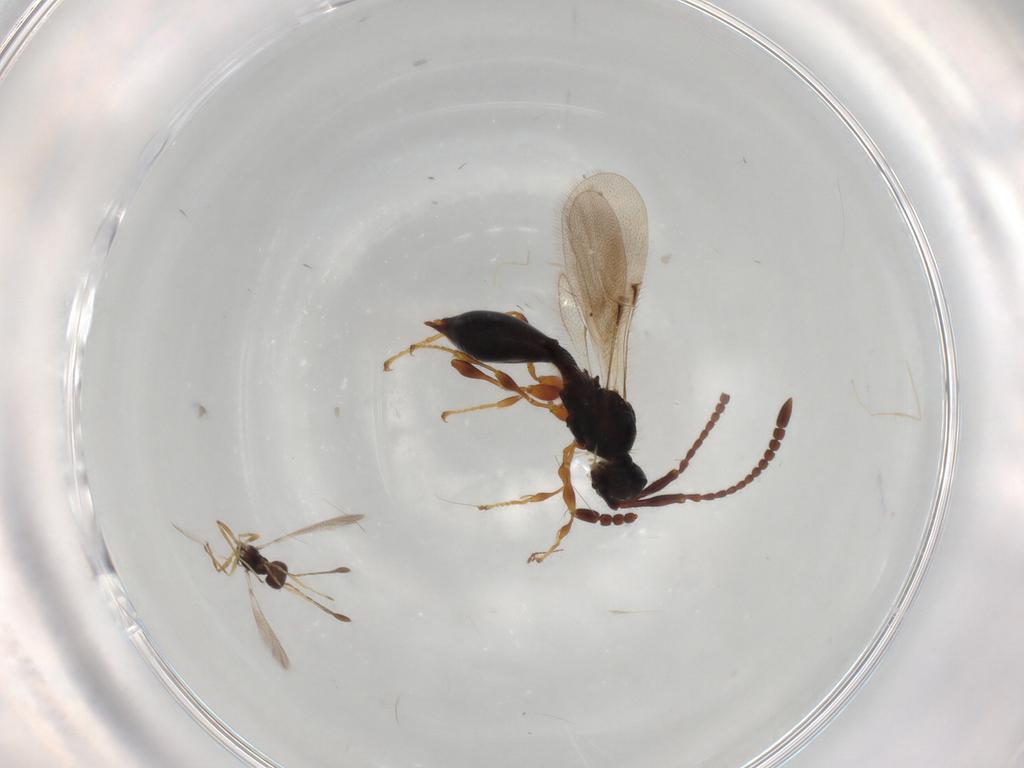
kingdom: Animalia
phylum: Arthropoda
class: Insecta
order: Hymenoptera
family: Mymaridae
